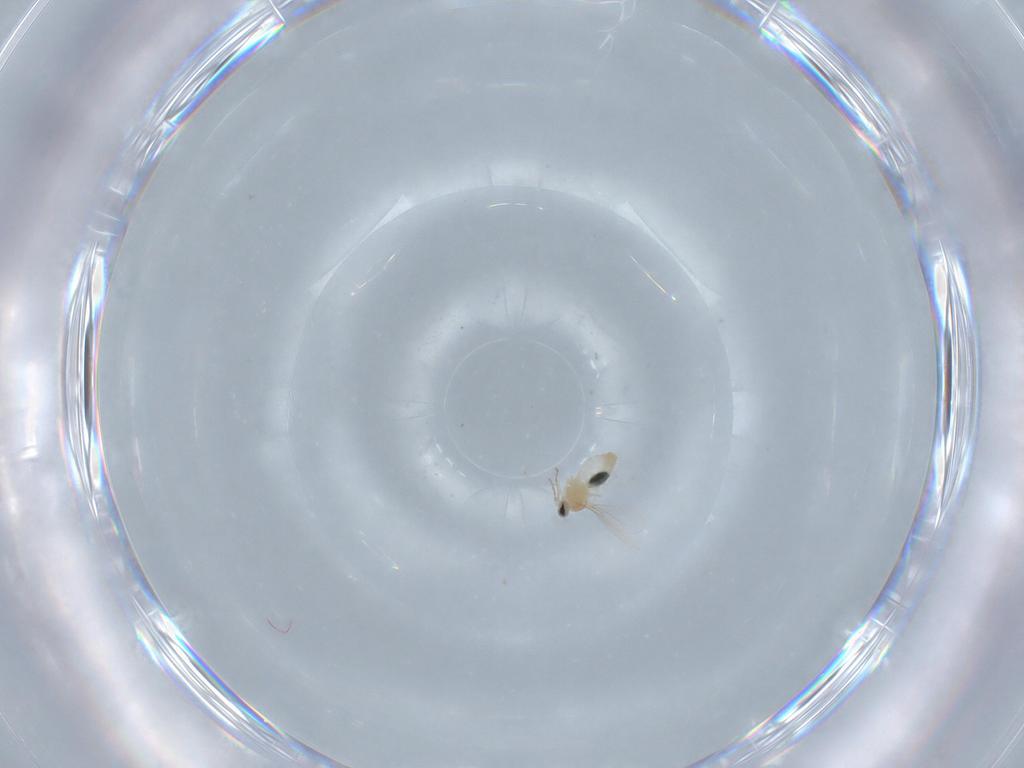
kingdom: Animalia
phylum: Arthropoda
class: Insecta
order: Diptera
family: Cecidomyiidae
